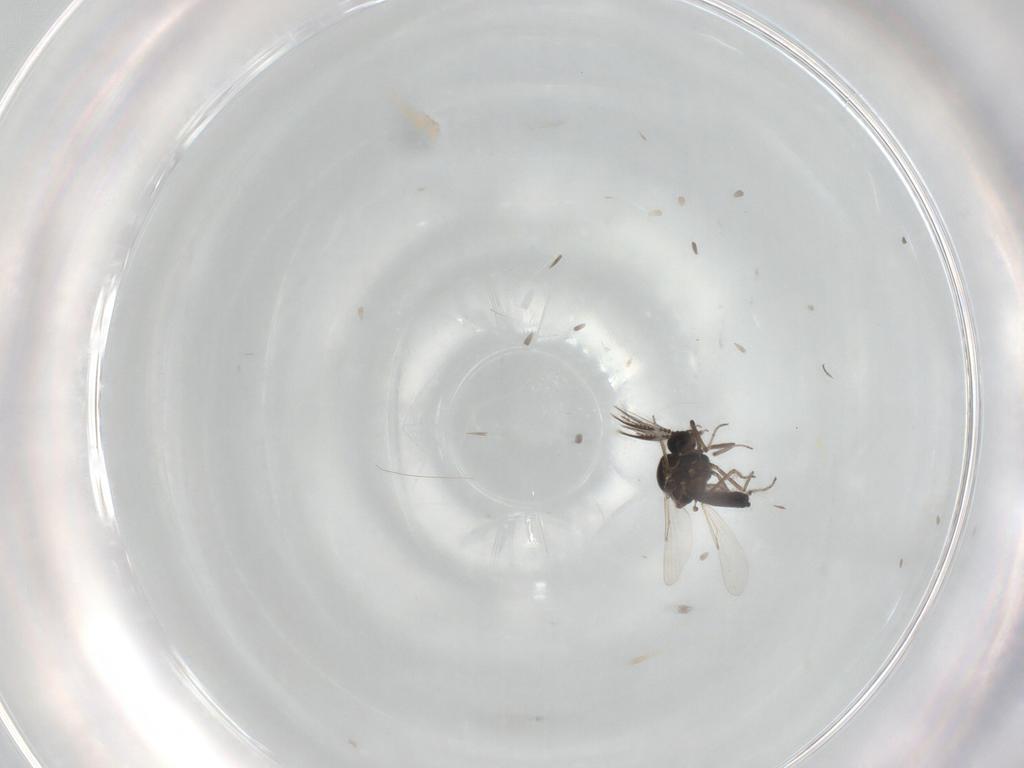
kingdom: Animalia
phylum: Arthropoda
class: Insecta
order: Diptera
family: Ceratopogonidae
